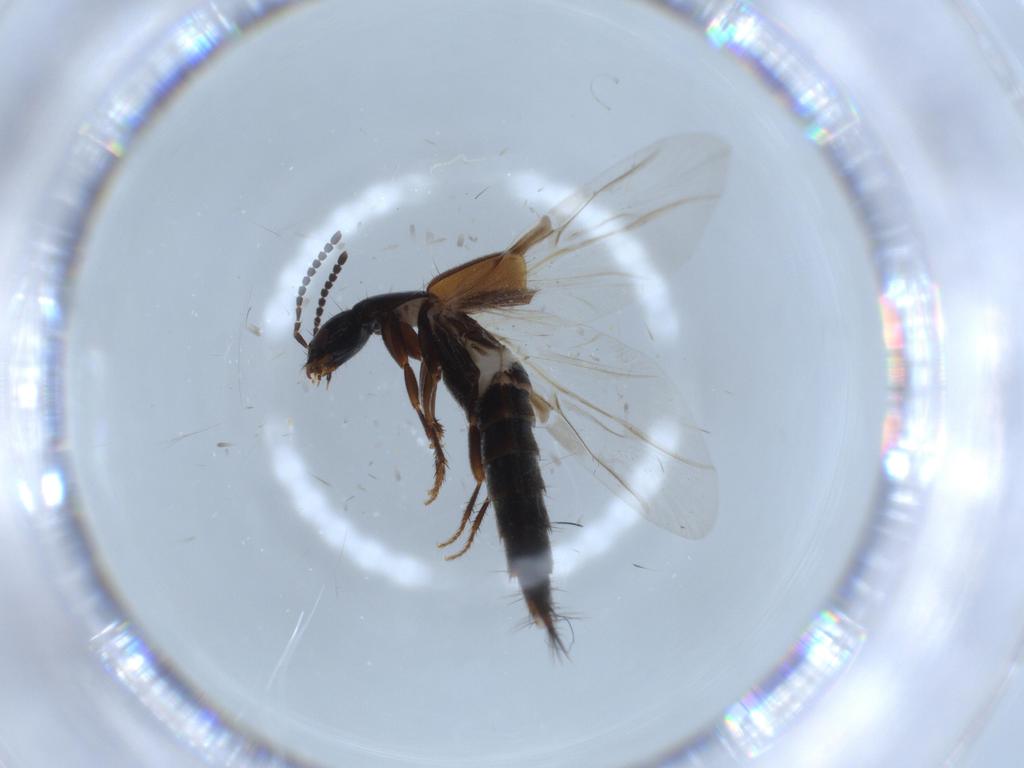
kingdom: Animalia
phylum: Arthropoda
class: Insecta
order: Coleoptera
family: Staphylinidae
